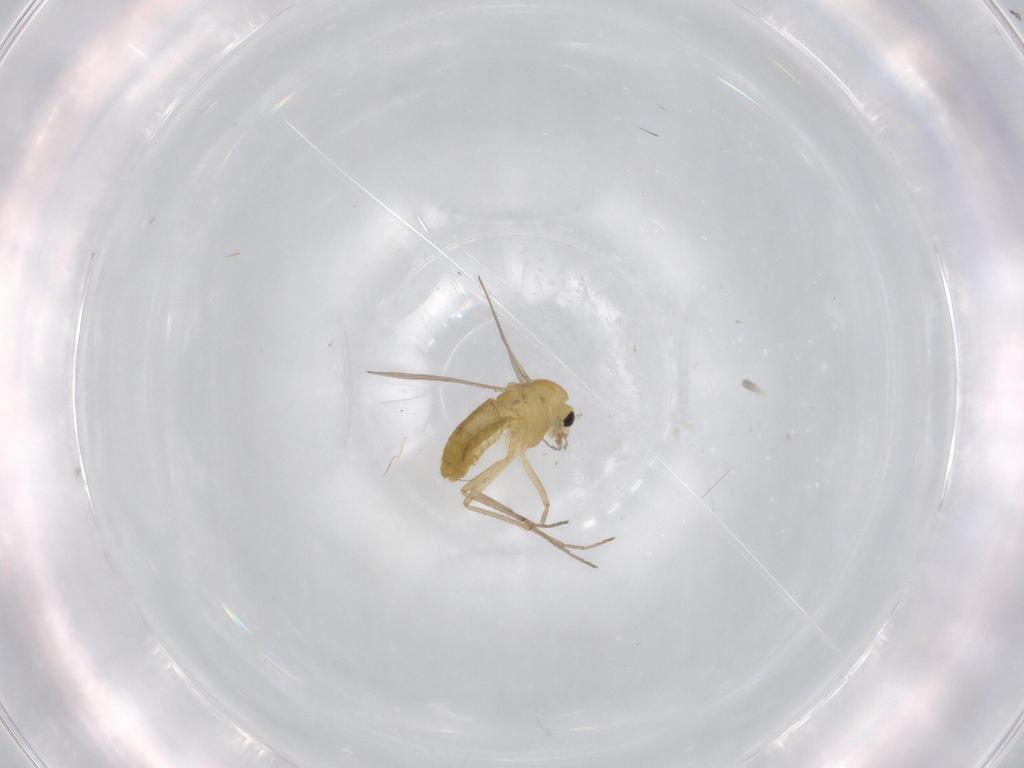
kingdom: Animalia
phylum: Arthropoda
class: Insecta
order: Diptera
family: Chironomidae
